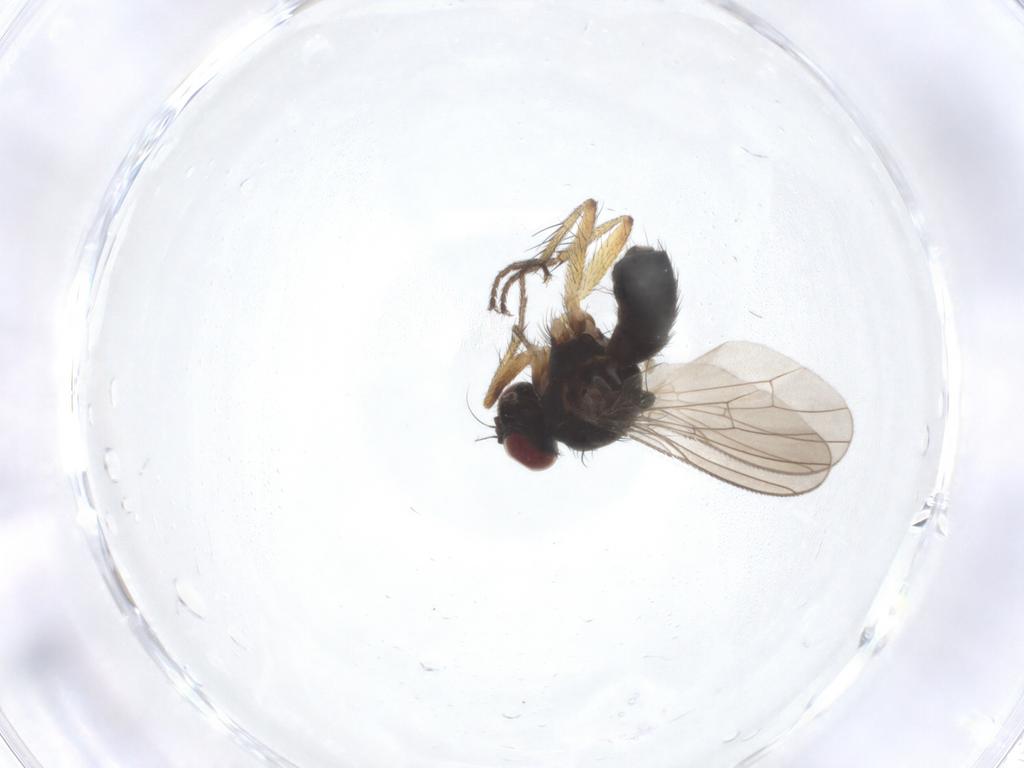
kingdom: Animalia
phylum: Arthropoda
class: Insecta
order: Diptera
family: Muscidae
